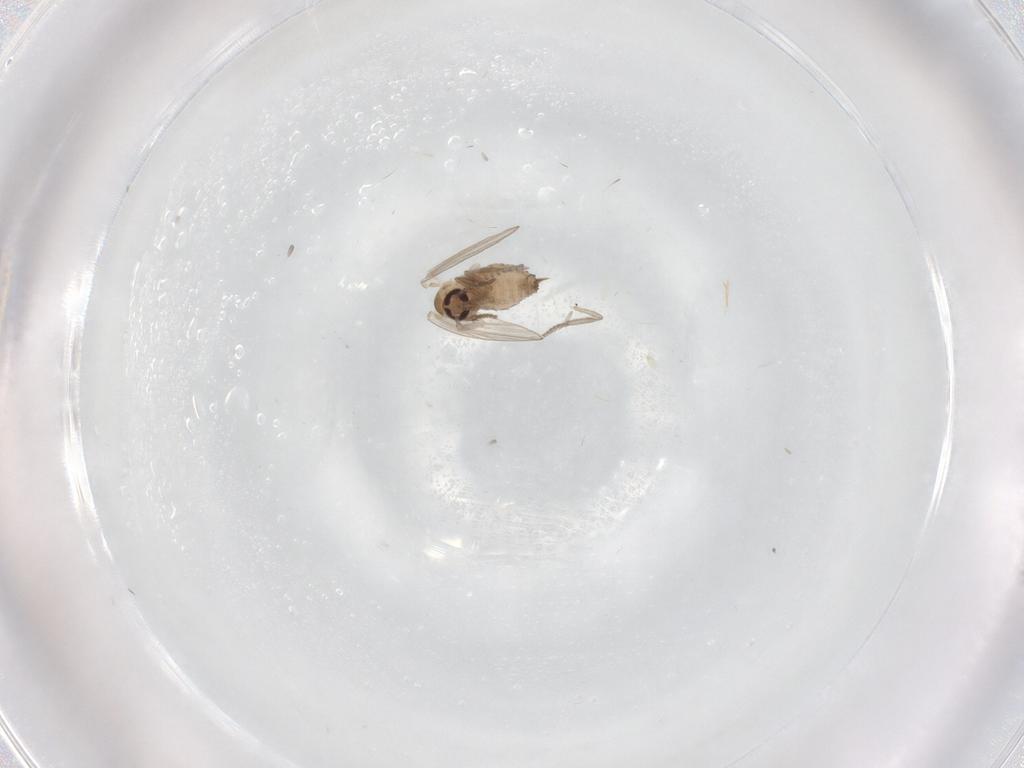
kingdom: Animalia
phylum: Arthropoda
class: Insecta
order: Diptera
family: Psychodidae
